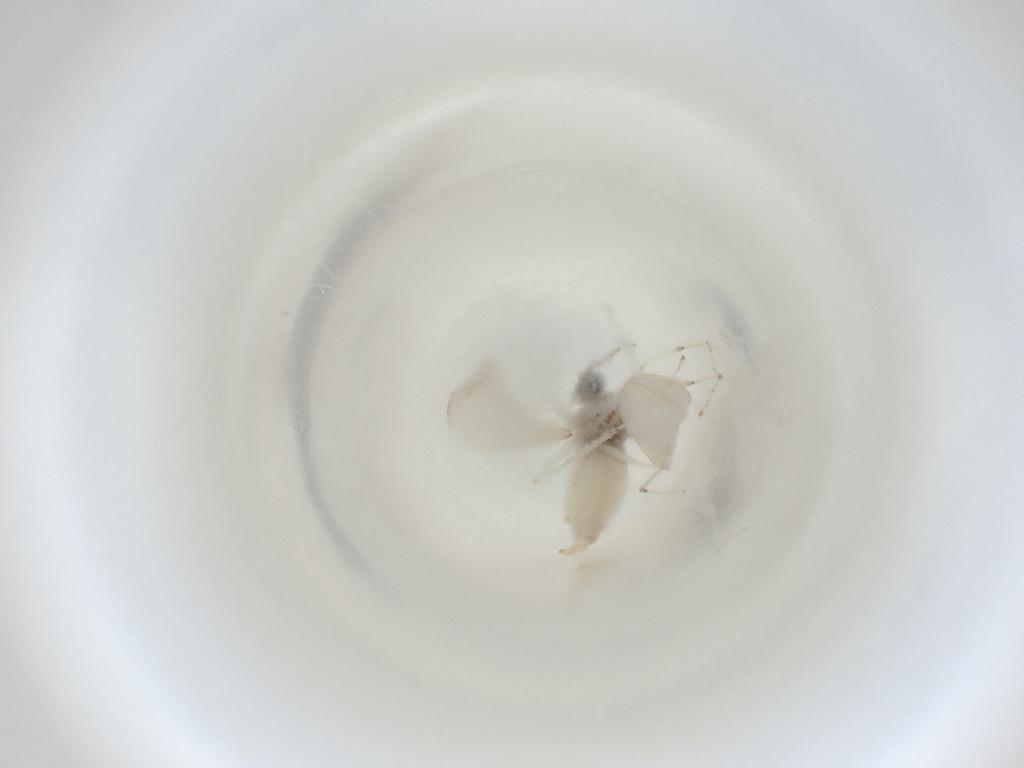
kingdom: Animalia
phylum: Arthropoda
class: Insecta
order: Diptera
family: Cecidomyiidae
